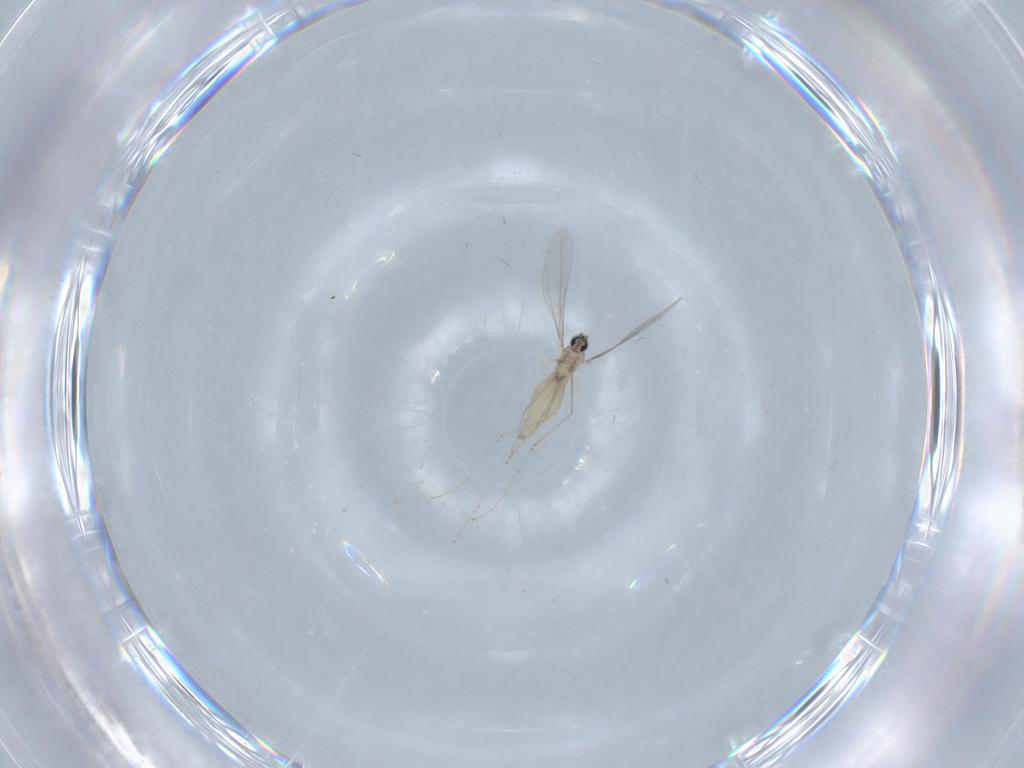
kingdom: Animalia
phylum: Arthropoda
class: Insecta
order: Diptera
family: Cecidomyiidae
